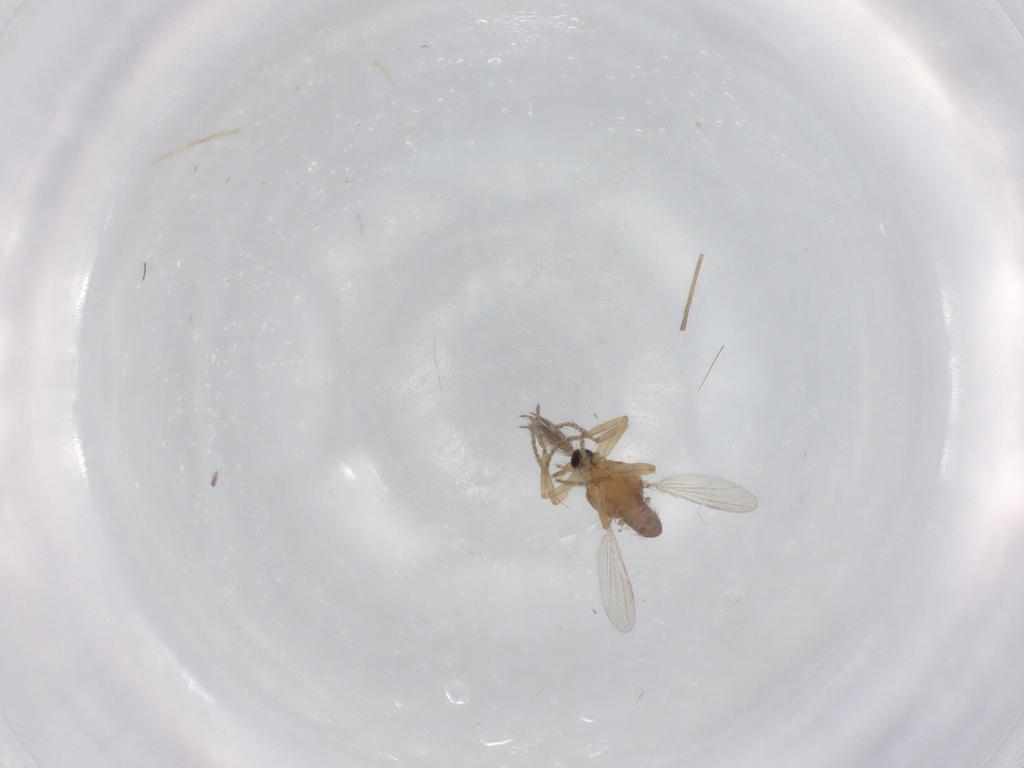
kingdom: Animalia
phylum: Arthropoda
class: Insecta
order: Diptera
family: Ceratopogonidae
